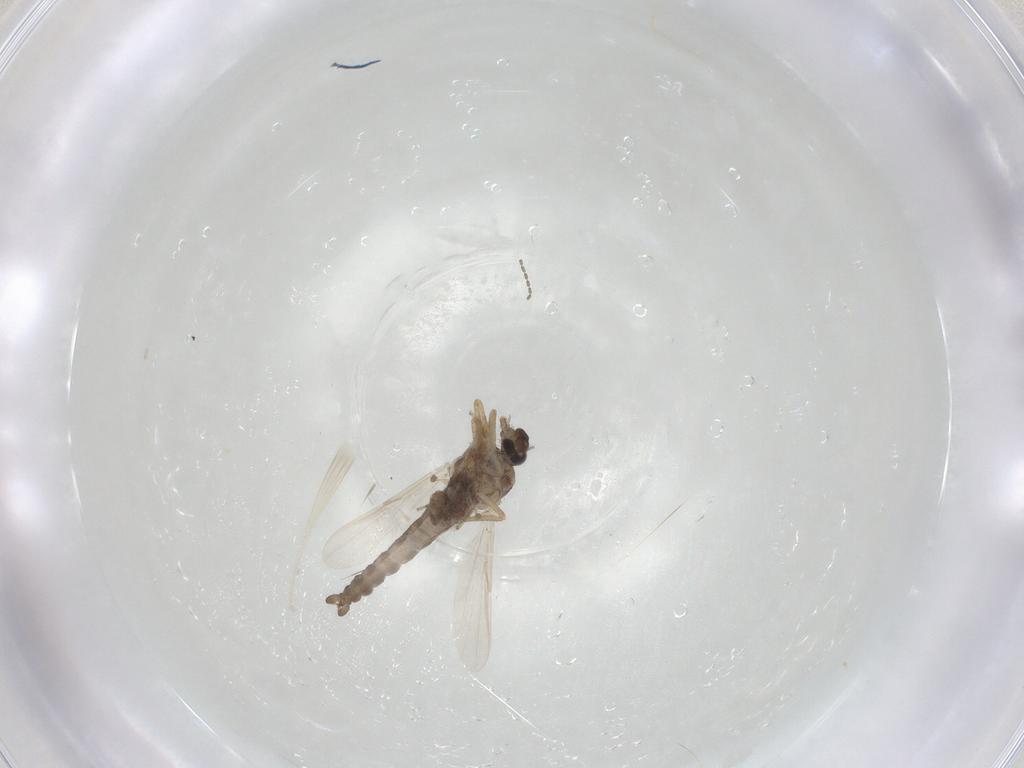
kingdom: Animalia
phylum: Arthropoda
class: Insecta
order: Diptera
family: Ceratopogonidae
